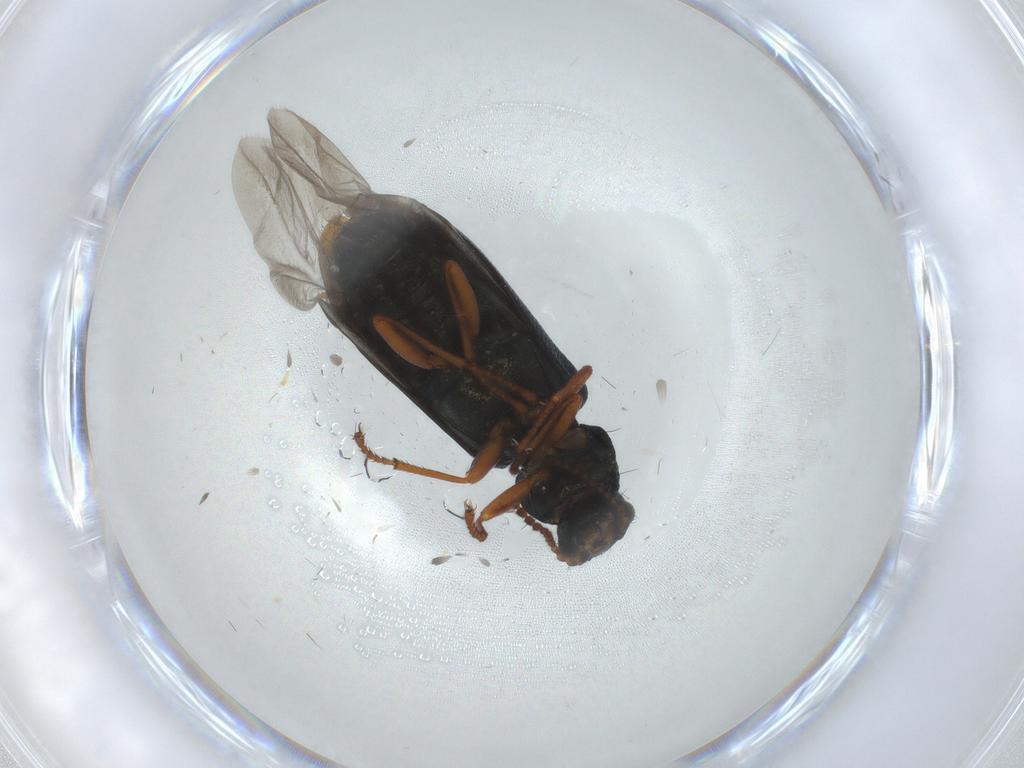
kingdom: Animalia
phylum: Arthropoda
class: Insecta
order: Coleoptera
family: Melyridae
